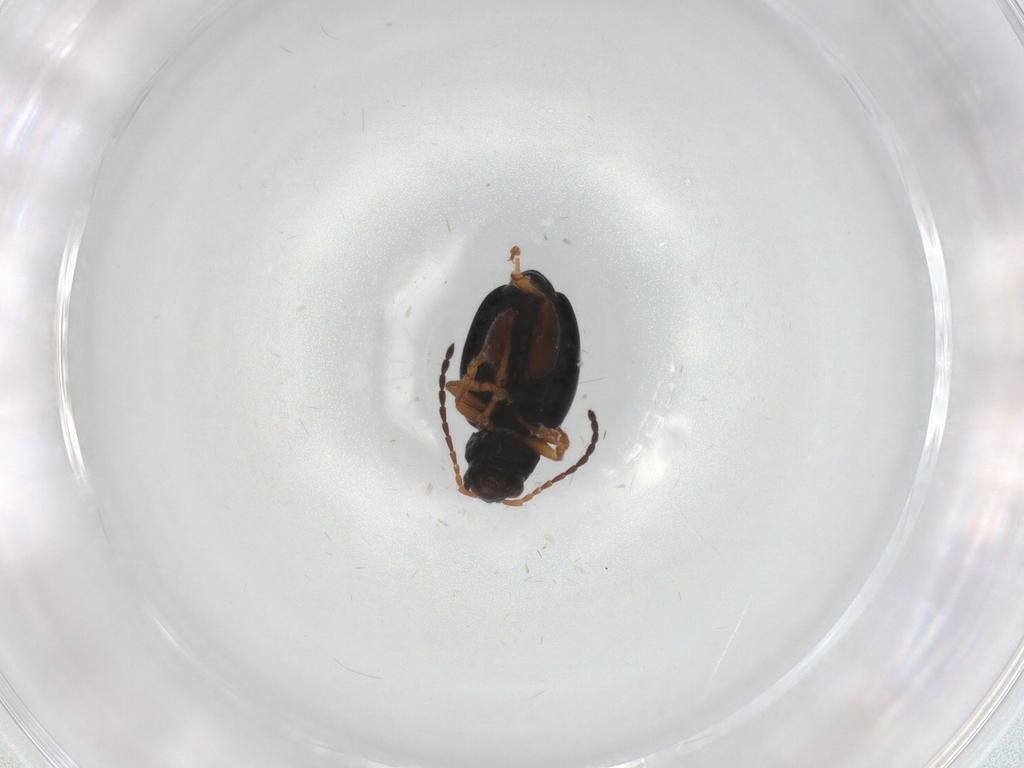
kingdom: Animalia
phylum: Arthropoda
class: Insecta
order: Coleoptera
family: Chrysomelidae
